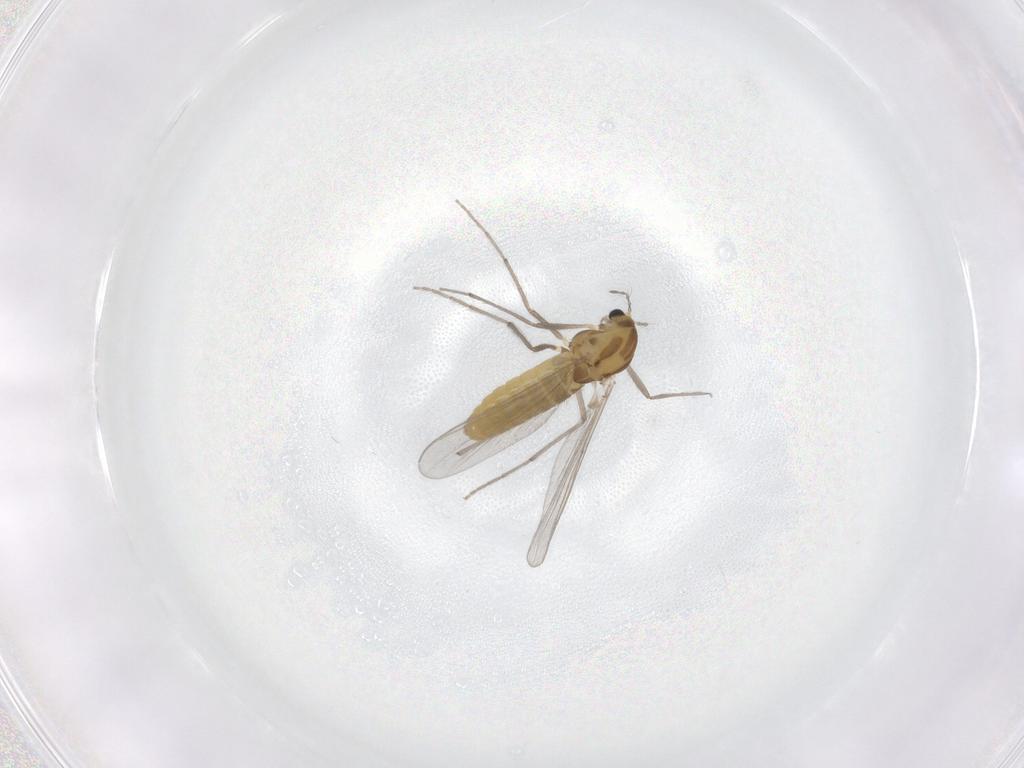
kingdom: Animalia
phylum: Arthropoda
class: Insecta
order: Diptera
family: Chironomidae
